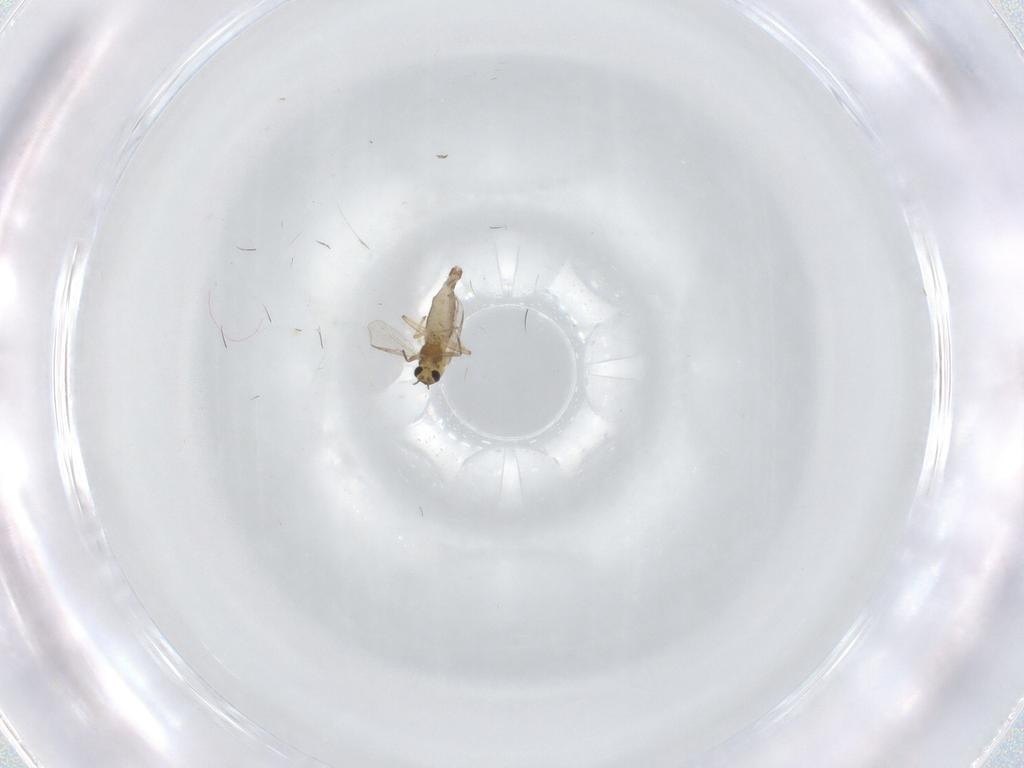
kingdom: Animalia
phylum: Arthropoda
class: Insecta
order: Diptera
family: Chironomidae
